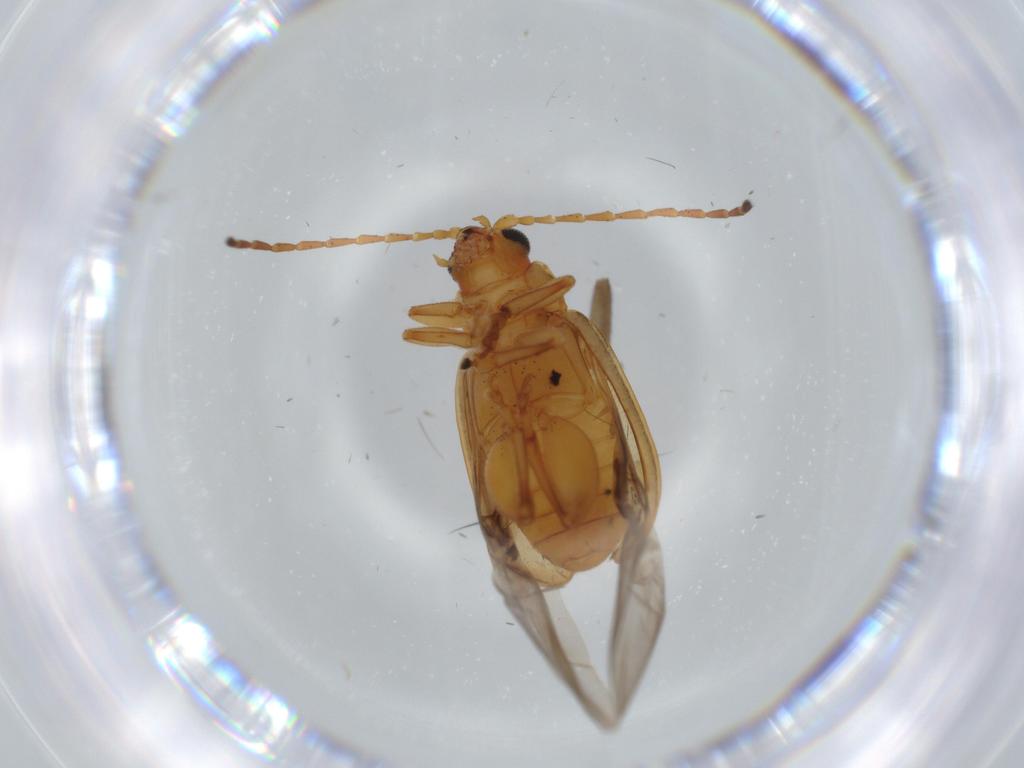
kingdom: Animalia
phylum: Arthropoda
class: Insecta
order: Coleoptera
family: Chrysomelidae
